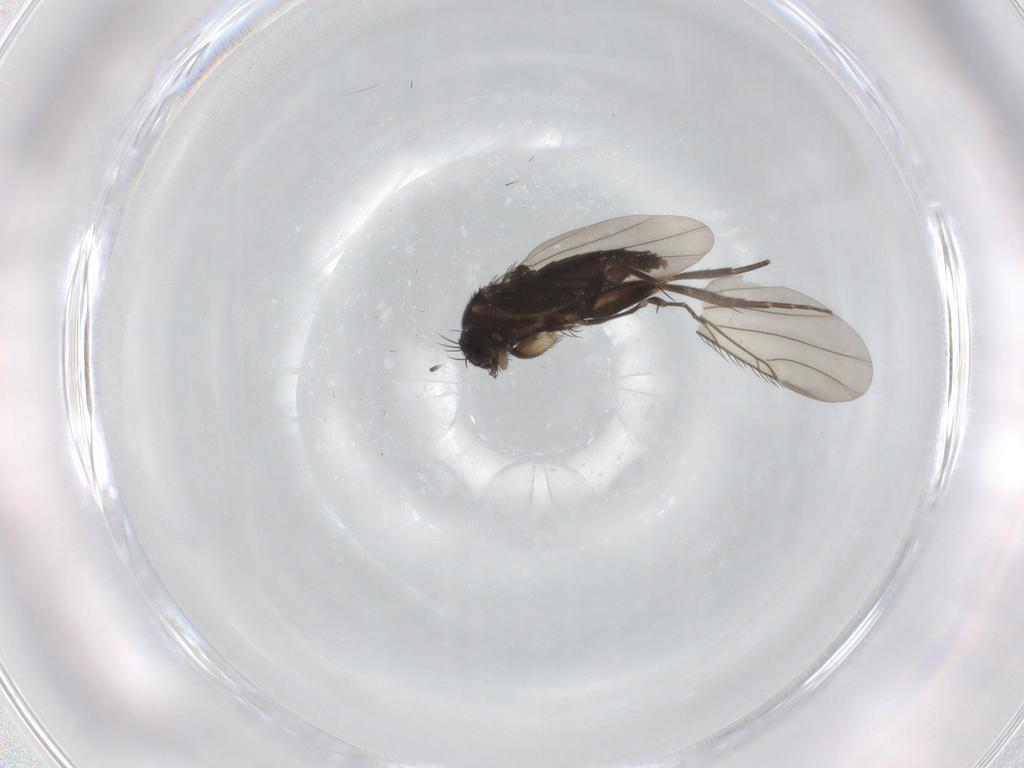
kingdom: Animalia
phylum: Arthropoda
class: Insecta
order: Diptera
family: Phoridae
